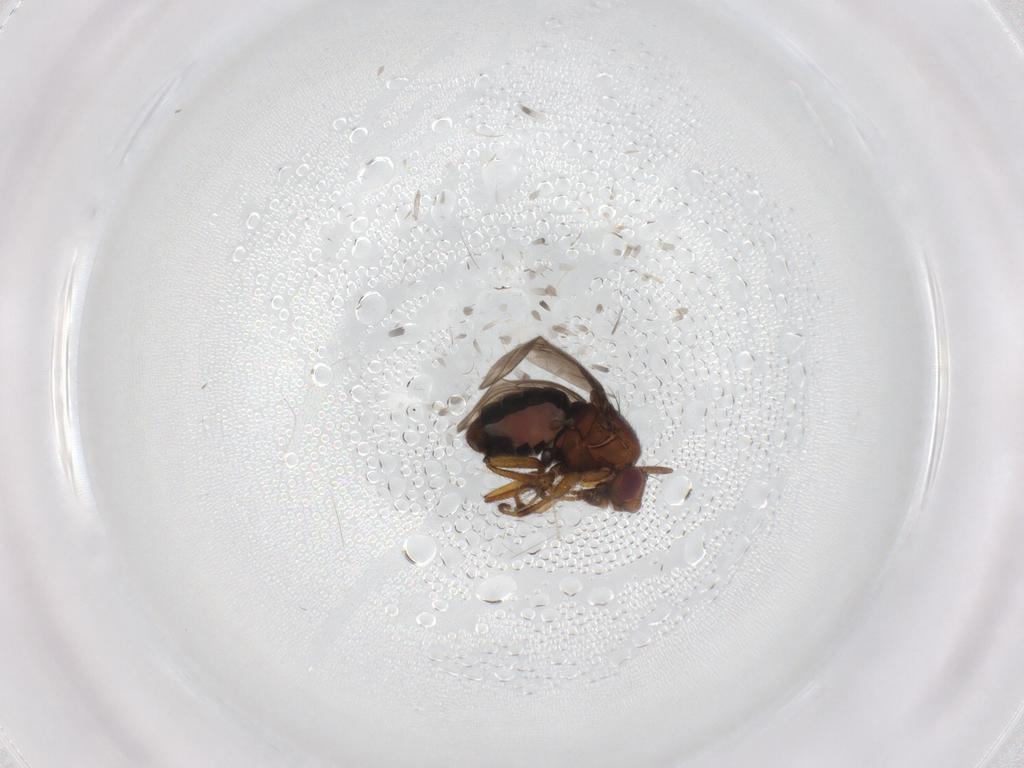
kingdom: Animalia
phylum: Arthropoda
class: Insecta
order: Diptera
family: Sphaeroceridae
